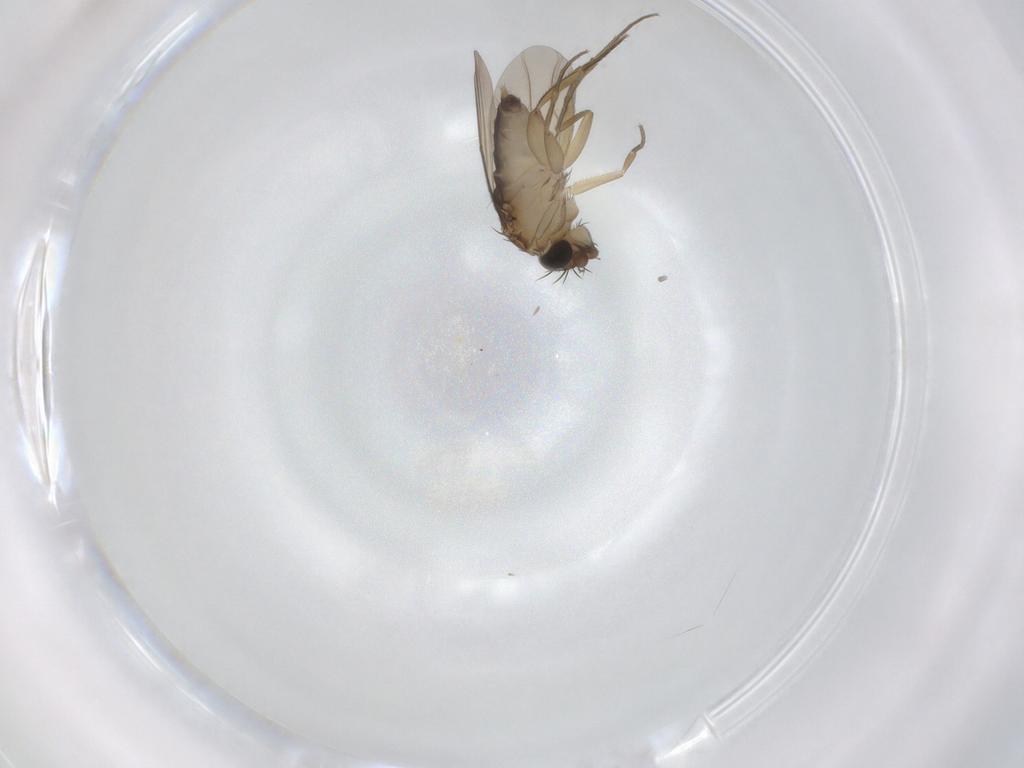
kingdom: Animalia
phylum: Arthropoda
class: Insecta
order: Diptera
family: Phoridae
